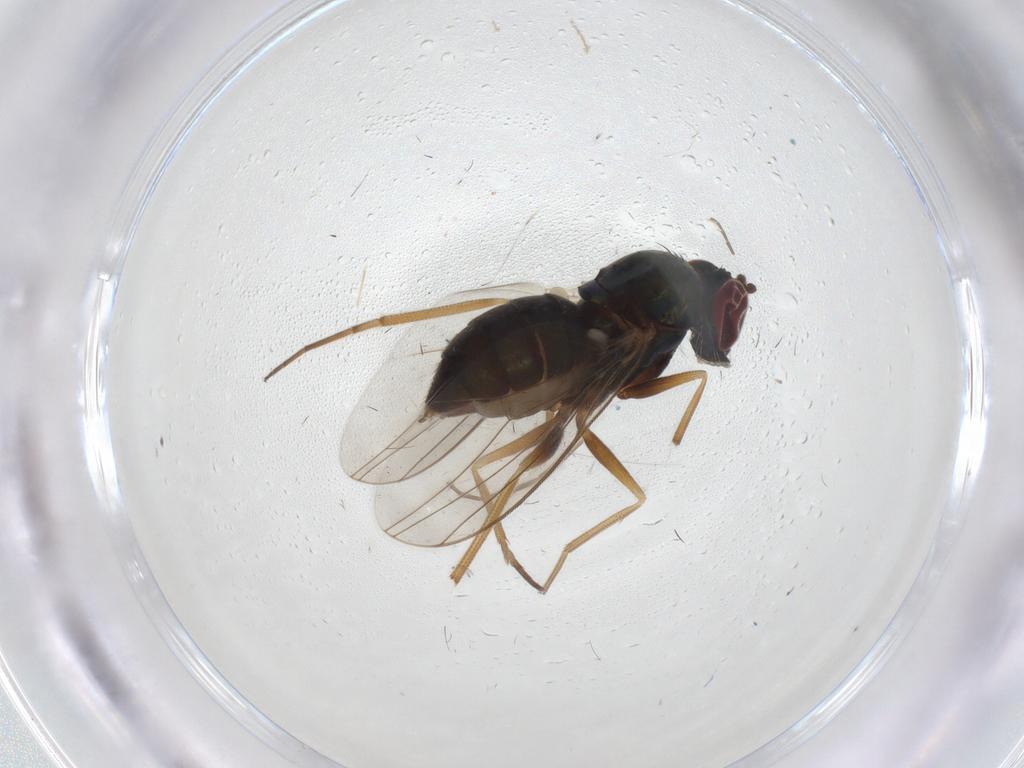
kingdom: Animalia
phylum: Arthropoda
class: Insecta
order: Diptera
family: Dolichopodidae
